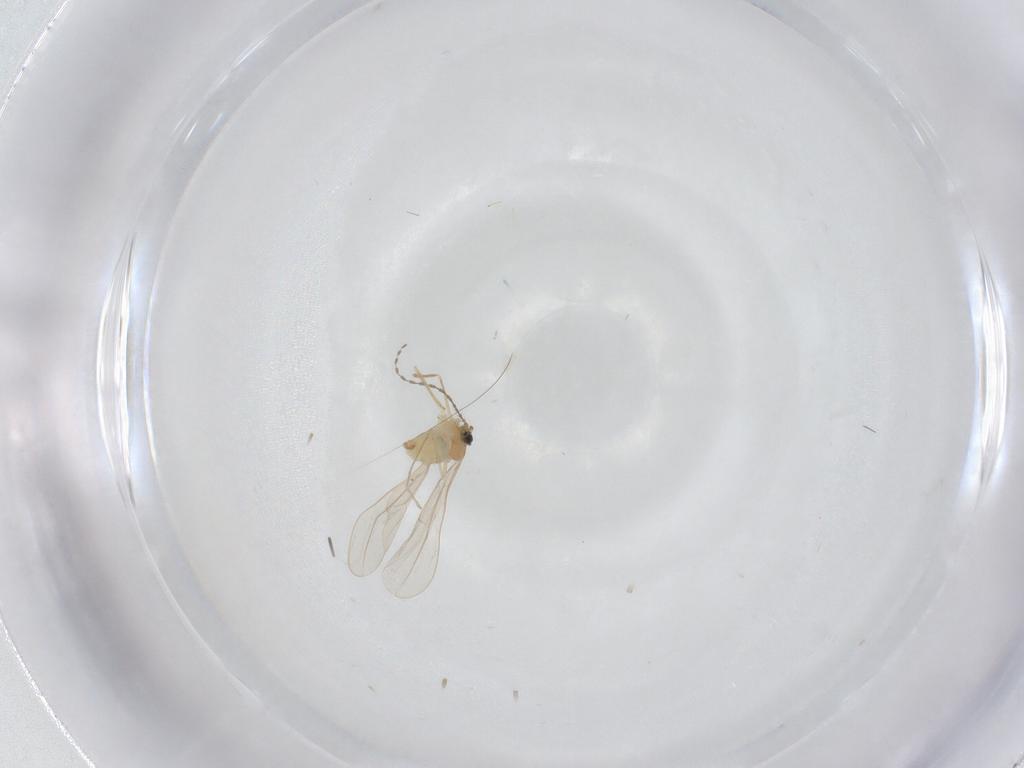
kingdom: Animalia
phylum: Arthropoda
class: Insecta
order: Diptera
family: Cecidomyiidae
